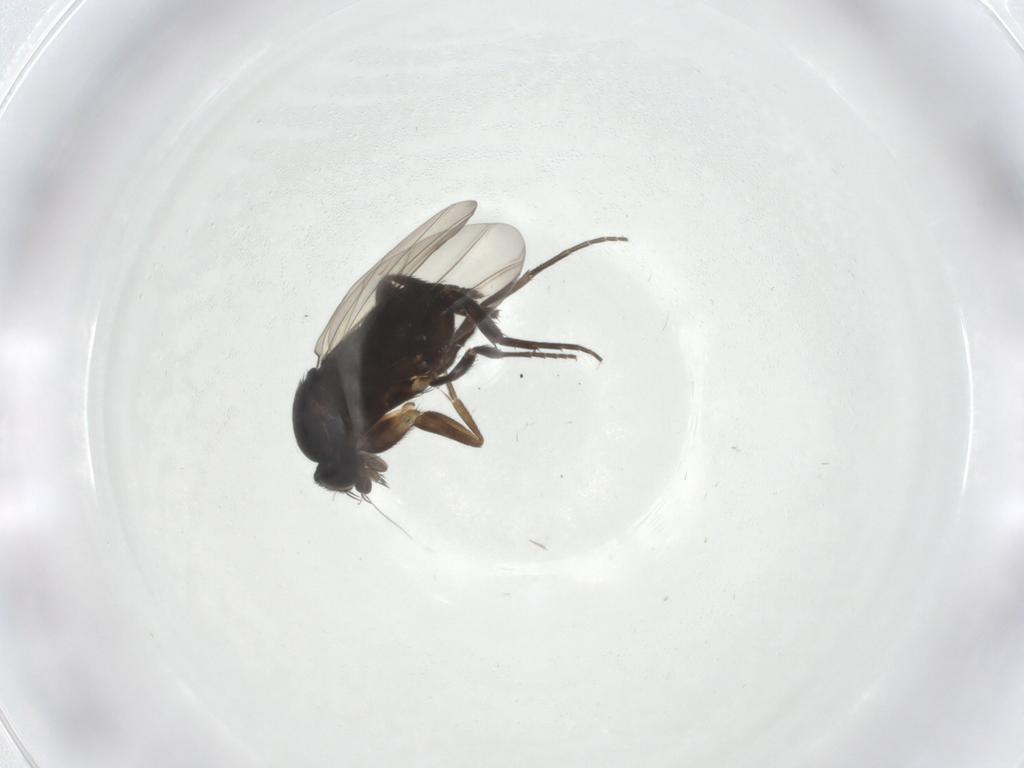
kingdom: Animalia
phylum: Arthropoda
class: Insecta
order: Diptera
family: Phoridae
